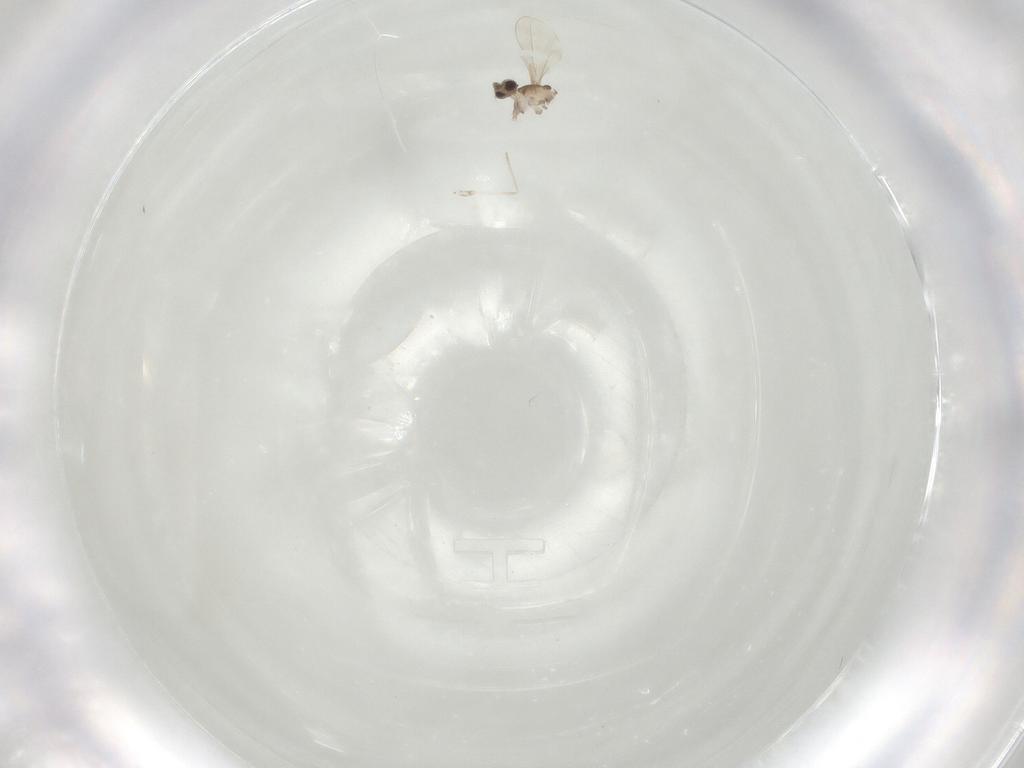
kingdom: Animalia
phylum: Arthropoda
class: Insecta
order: Diptera
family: Cecidomyiidae
